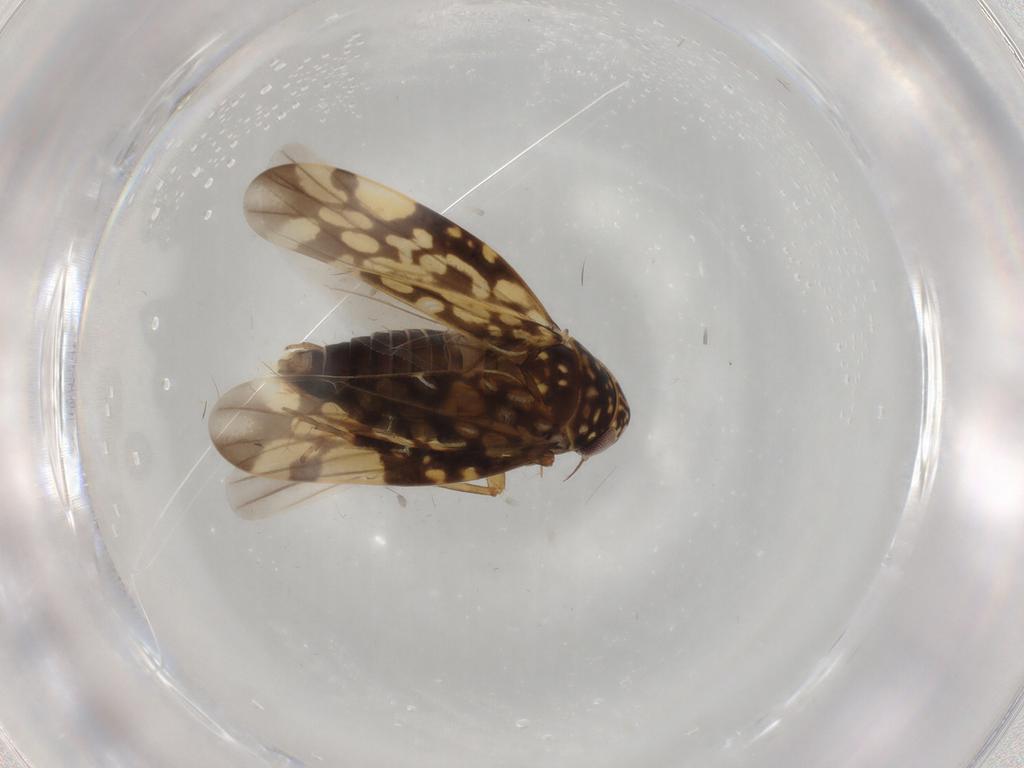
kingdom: Animalia
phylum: Arthropoda
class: Insecta
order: Hemiptera
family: Cicadellidae
